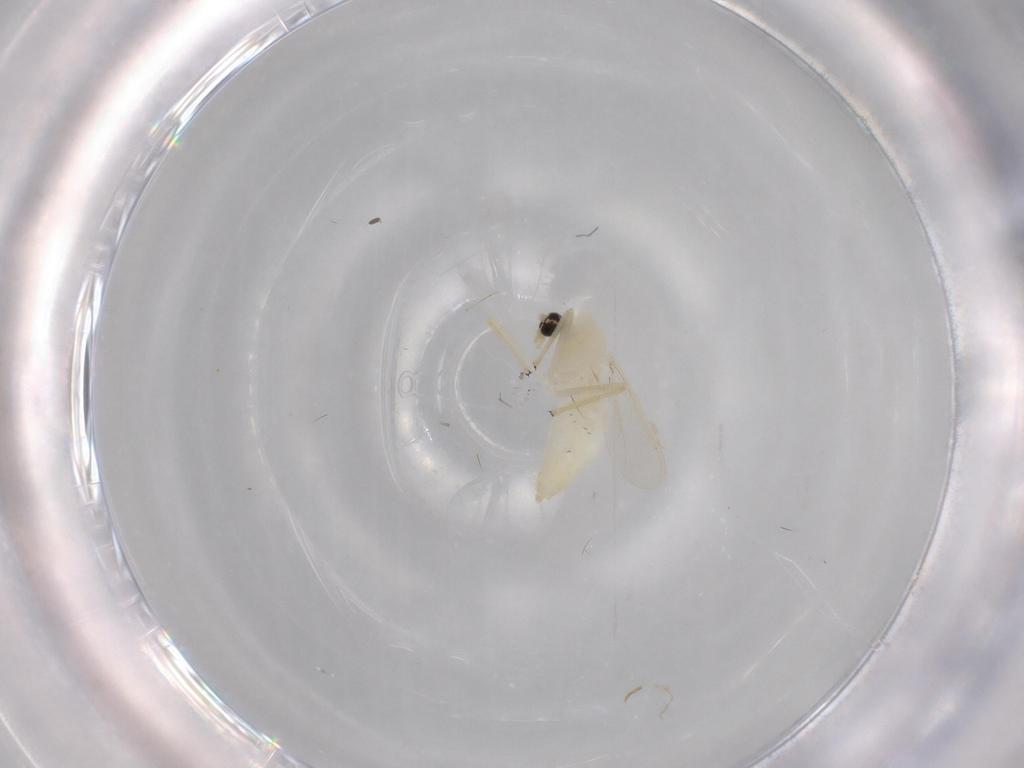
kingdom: Animalia
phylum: Arthropoda
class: Insecta
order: Diptera
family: Chironomidae
